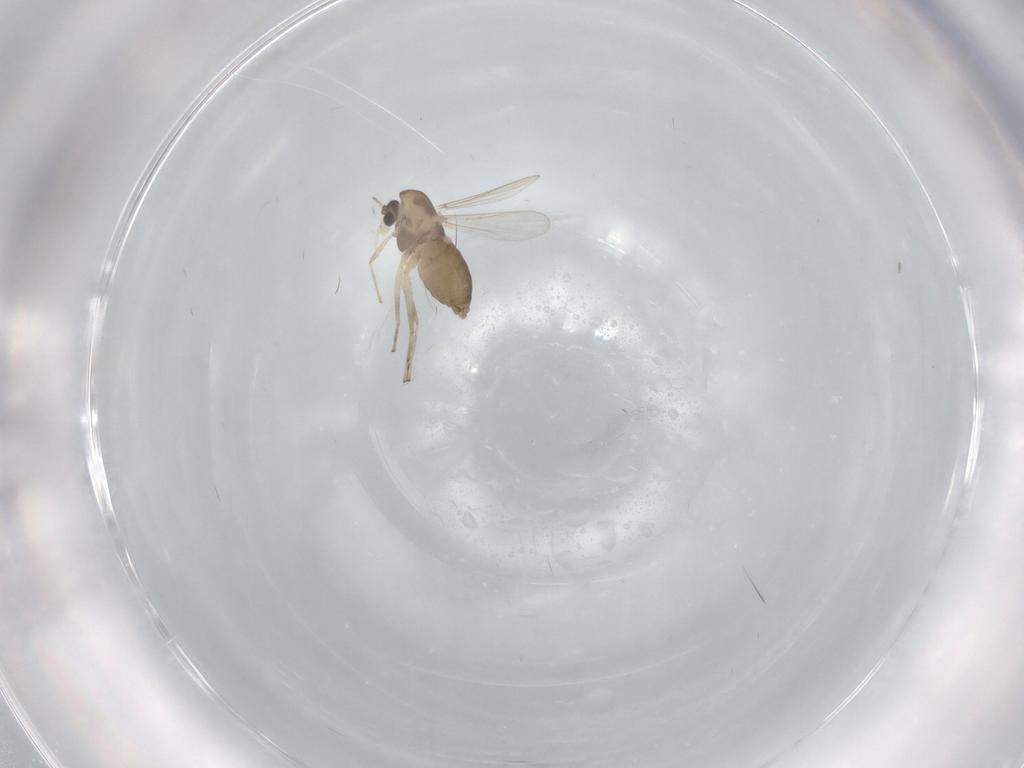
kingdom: Animalia
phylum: Arthropoda
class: Insecta
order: Diptera
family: Chironomidae
